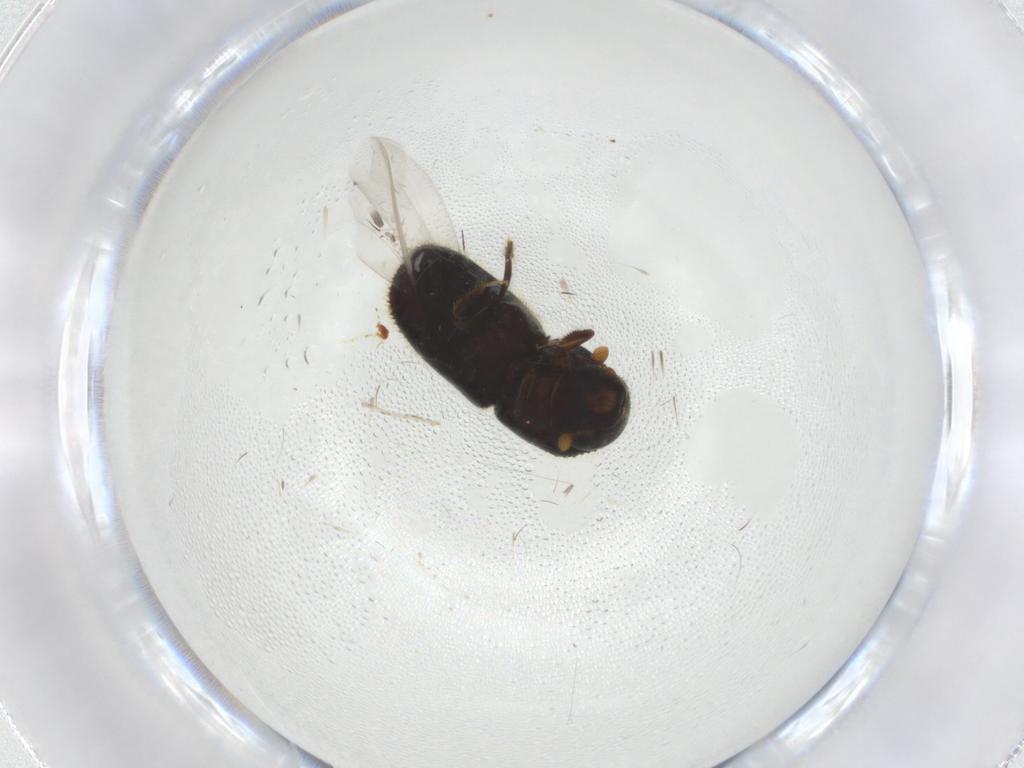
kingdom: Animalia
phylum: Arthropoda
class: Insecta
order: Coleoptera
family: Curculionidae
